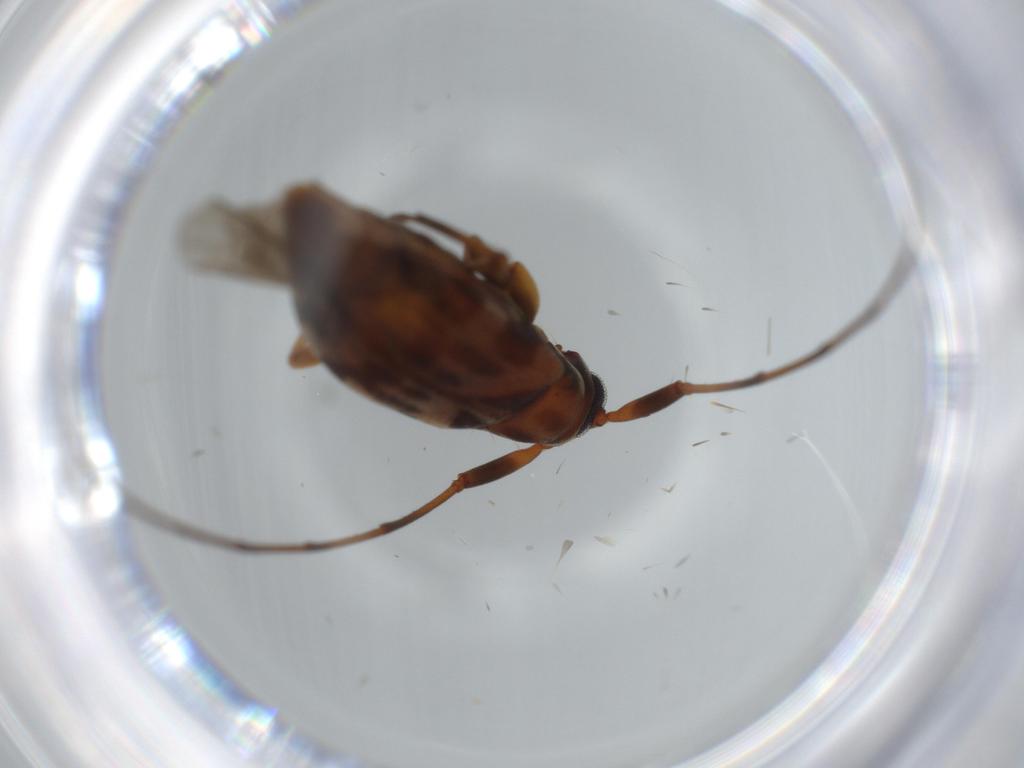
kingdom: Animalia
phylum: Arthropoda
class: Insecta
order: Coleoptera
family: Staphylinidae
